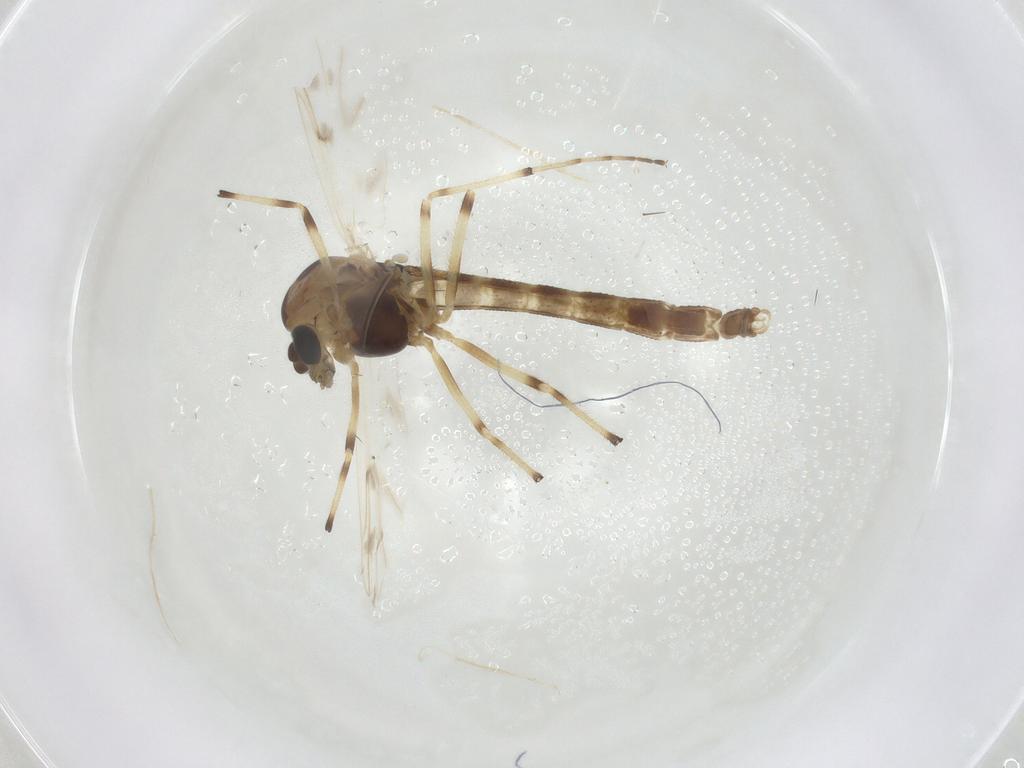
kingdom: Animalia
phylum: Arthropoda
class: Insecta
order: Diptera
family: Chironomidae
